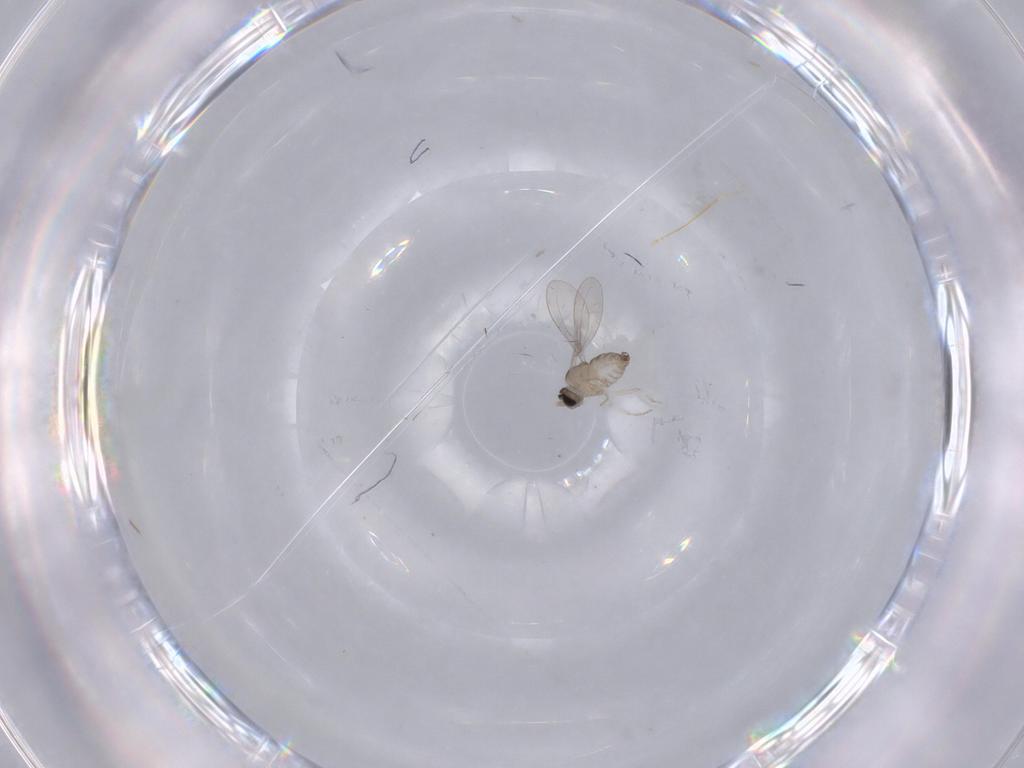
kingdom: Animalia
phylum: Arthropoda
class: Insecta
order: Diptera
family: Cecidomyiidae
